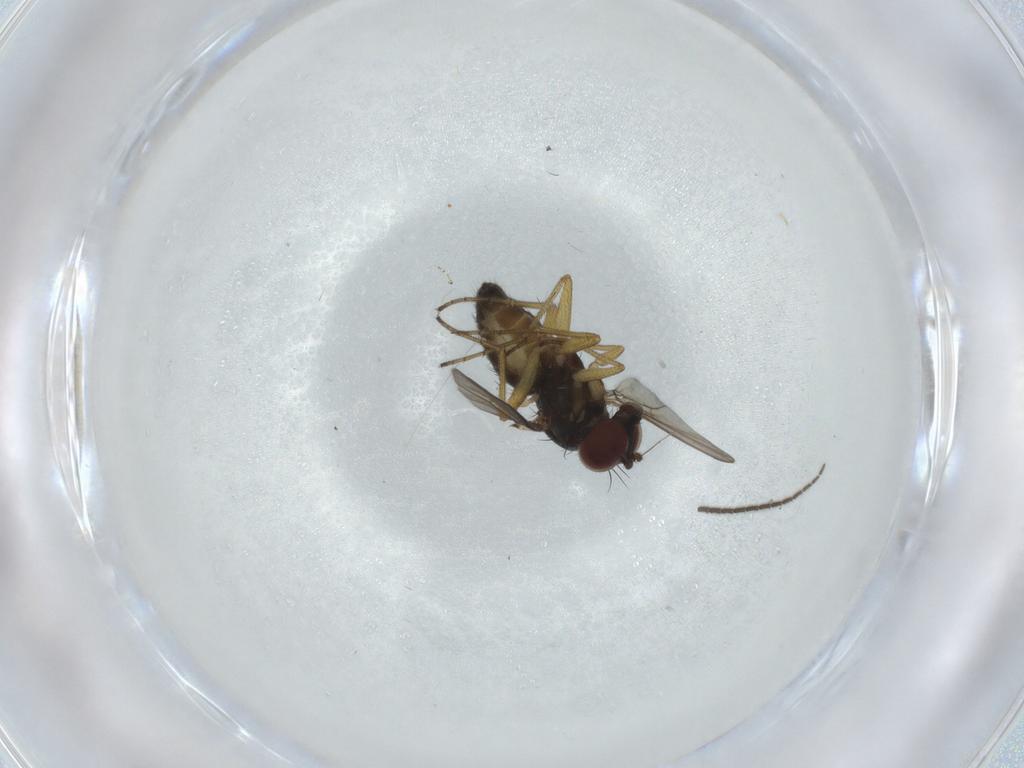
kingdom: Animalia
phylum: Arthropoda
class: Insecta
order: Diptera
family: Dolichopodidae
